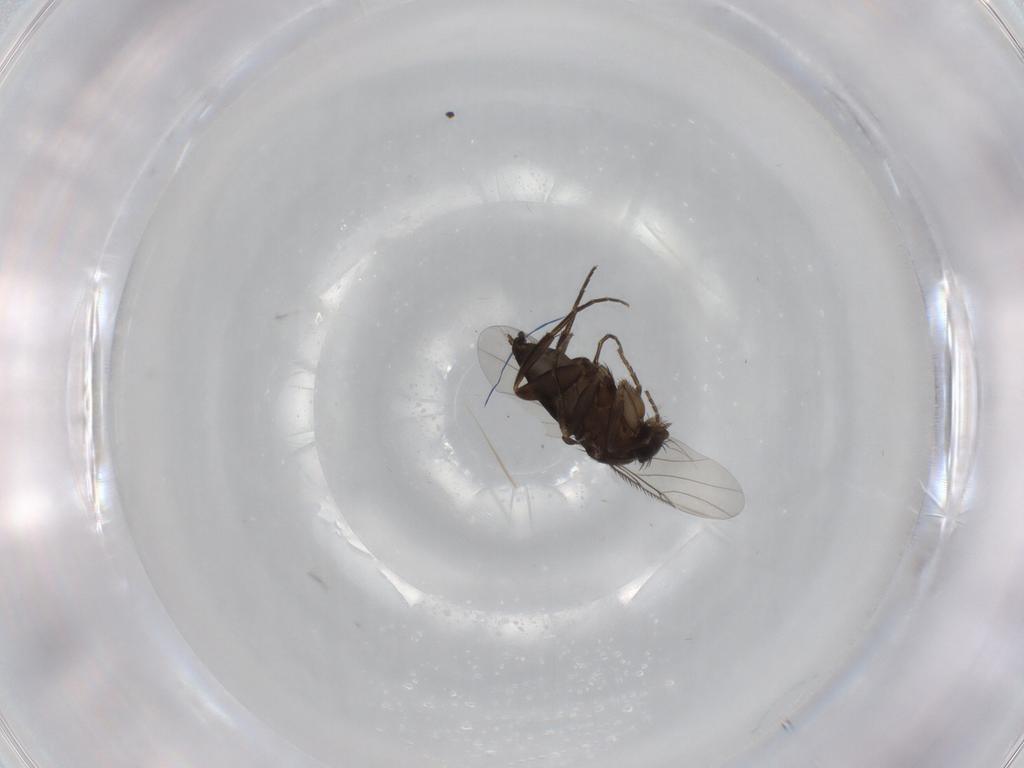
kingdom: Animalia
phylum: Arthropoda
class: Insecta
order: Diptera
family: Phoridae
